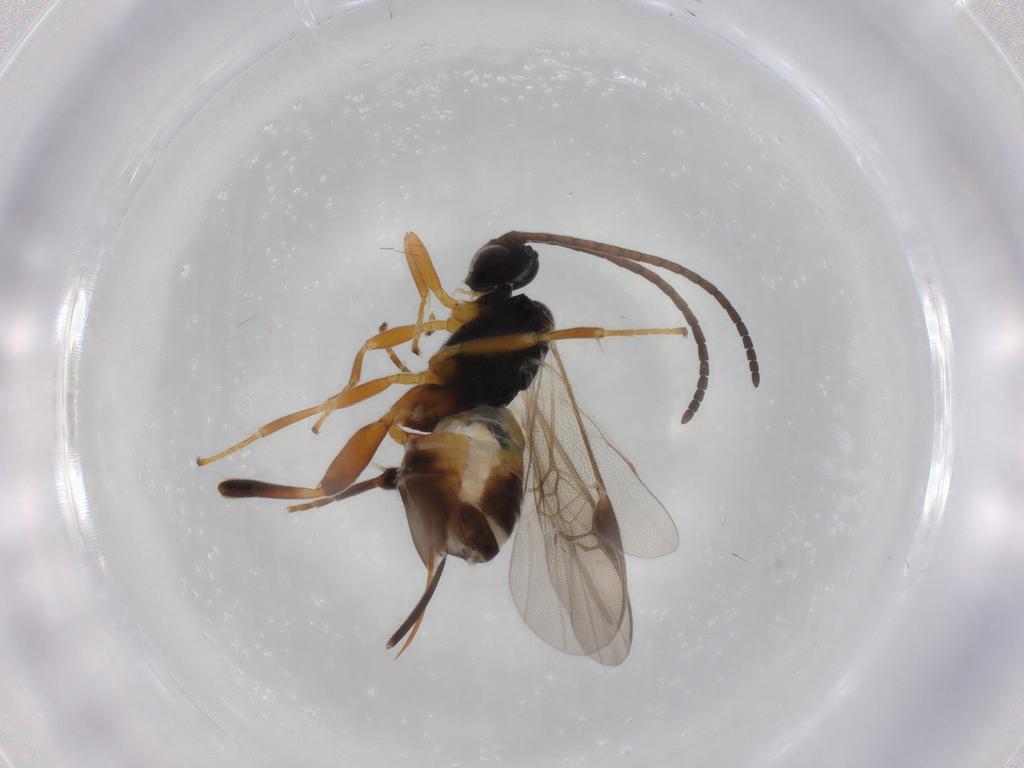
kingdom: Animalia
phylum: Arthropoda
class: Insecta
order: Hymenoptera
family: Braconidae
